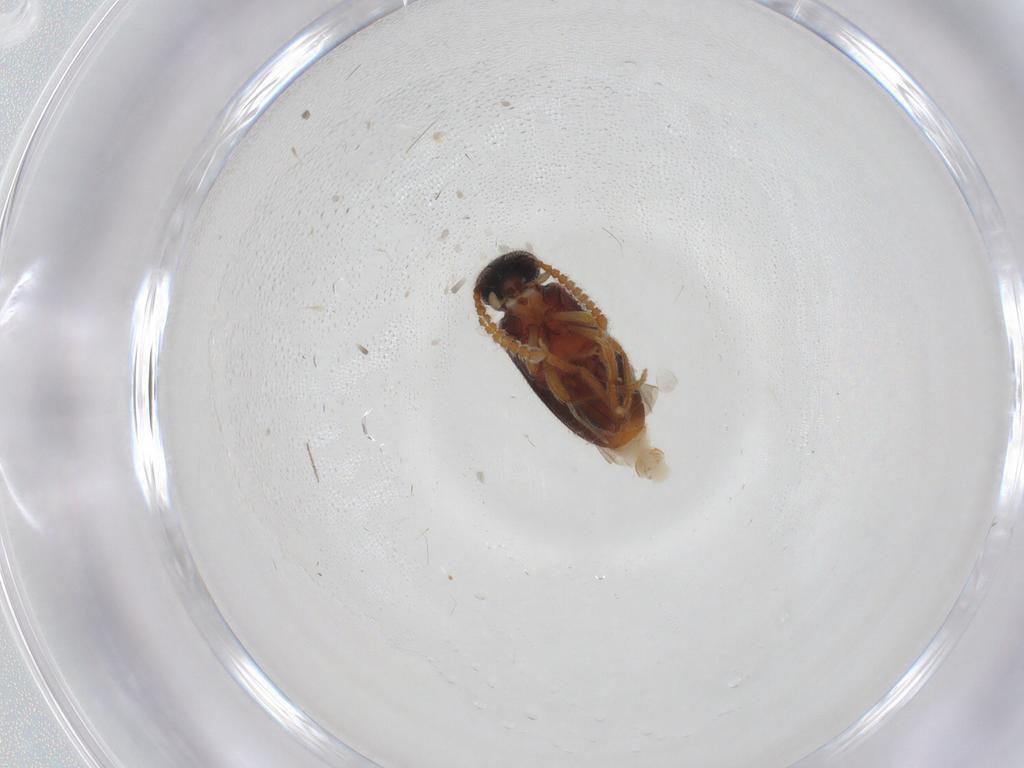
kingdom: Animalia
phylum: Arthropoda
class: Insecta
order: Coleoptera
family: Aderidae
